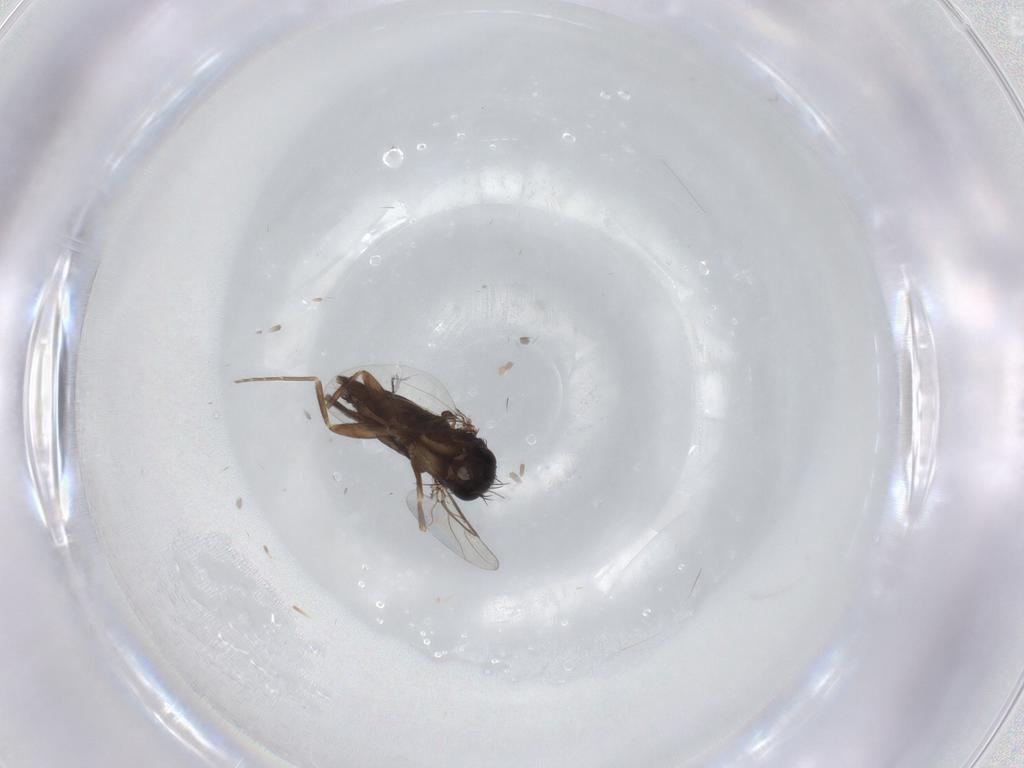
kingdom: Animalia
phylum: Arthropoda
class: Insecta
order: Diptera
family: Phoridae
